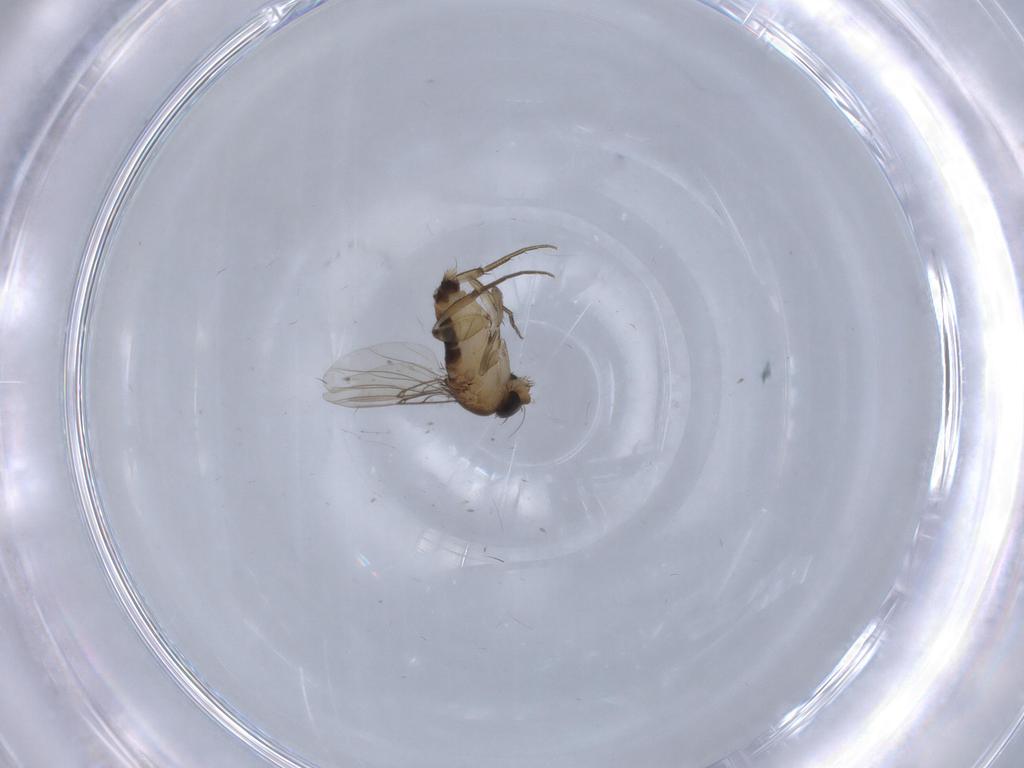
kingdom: Animalia
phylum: Arthropoda
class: Insecta
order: Diptera
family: Phoridae
